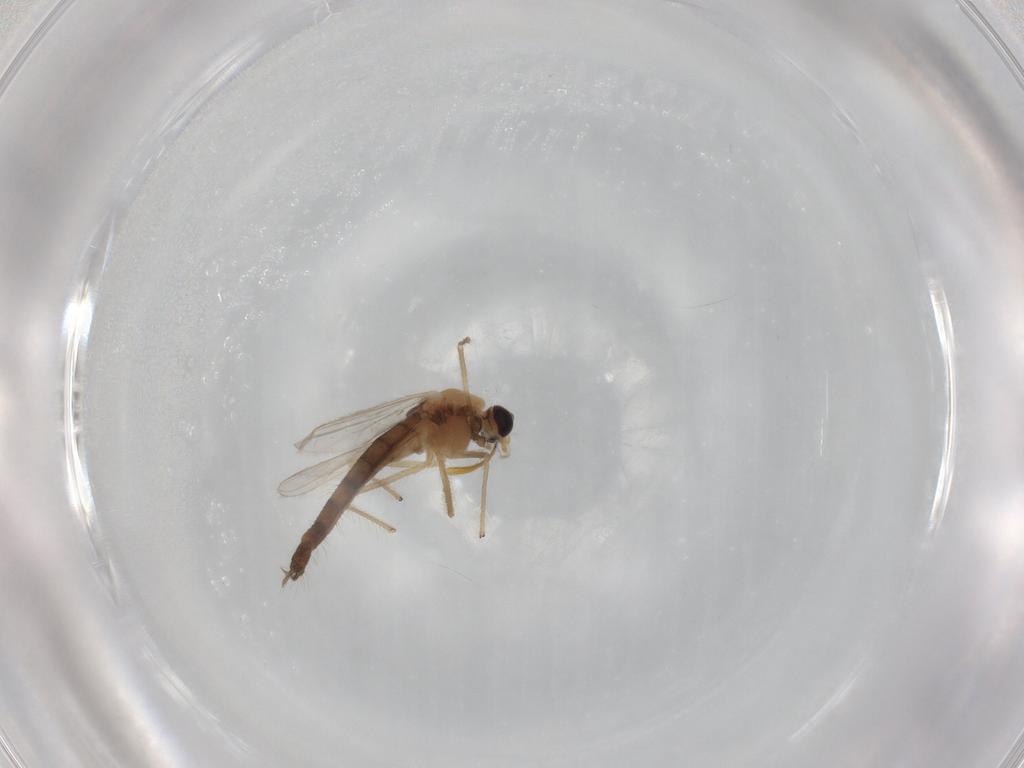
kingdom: Animalia
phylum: Arthropoda
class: Insecta
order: Diptera
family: Chironomidae
